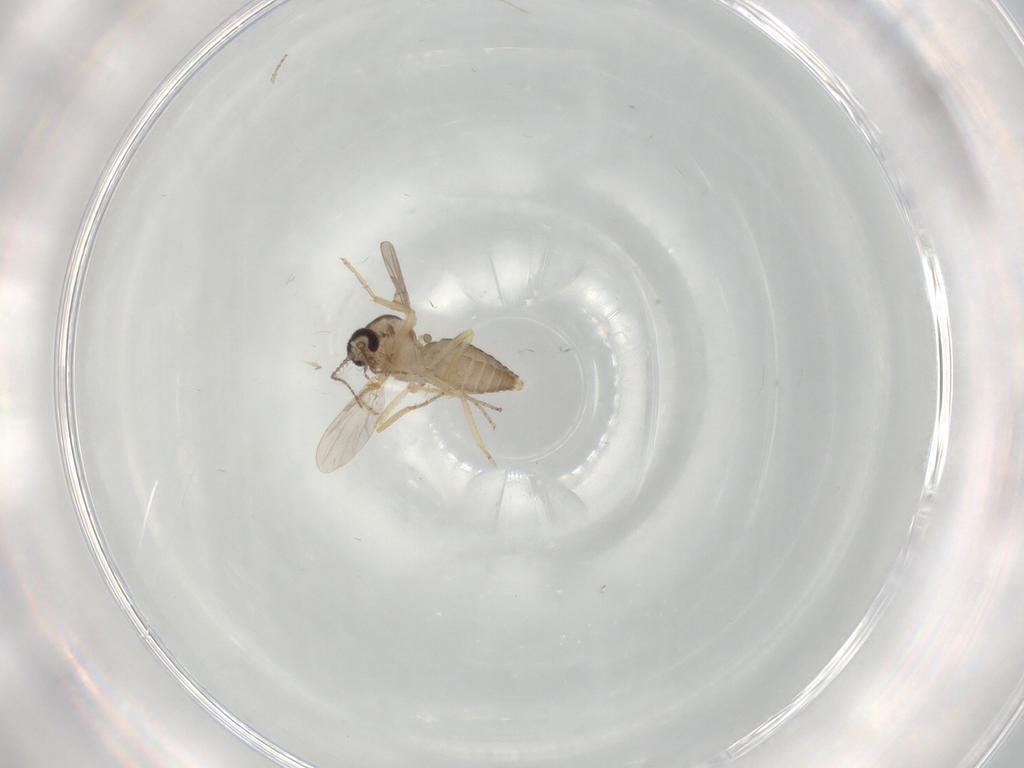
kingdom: Animalia
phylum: Arthropoda
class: Insecta
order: Diptera
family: Ceratopogonidae
